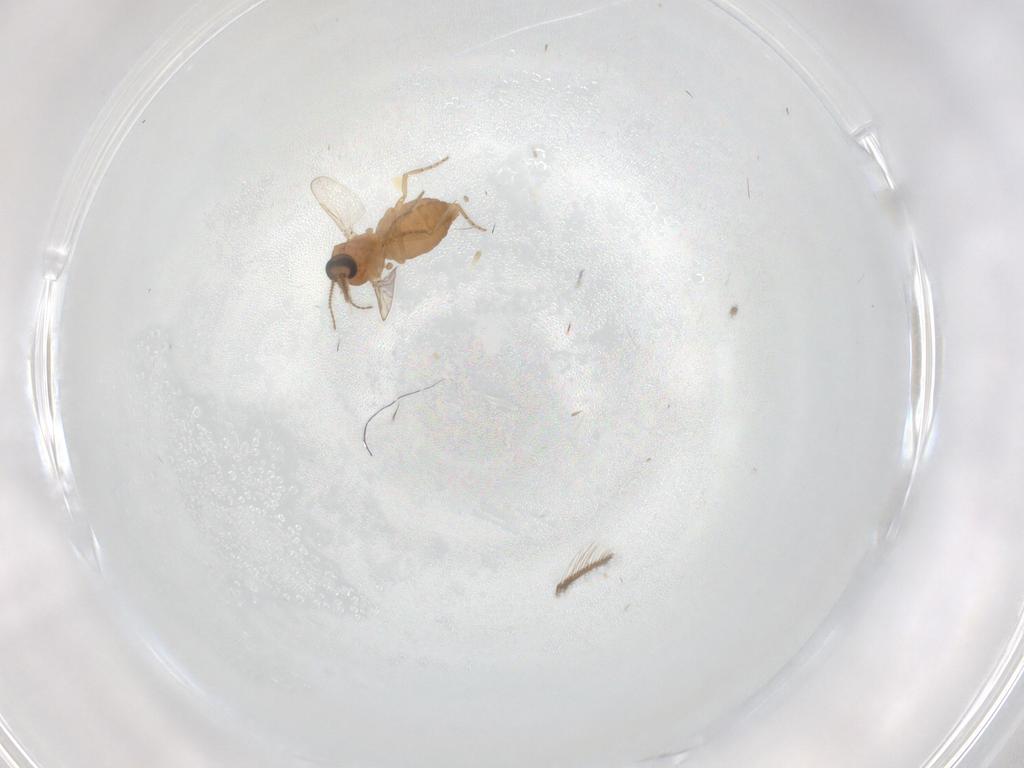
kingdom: Animalia
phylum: Arthropoda
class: Insecta
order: Diptera
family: Ceratopogonidae
